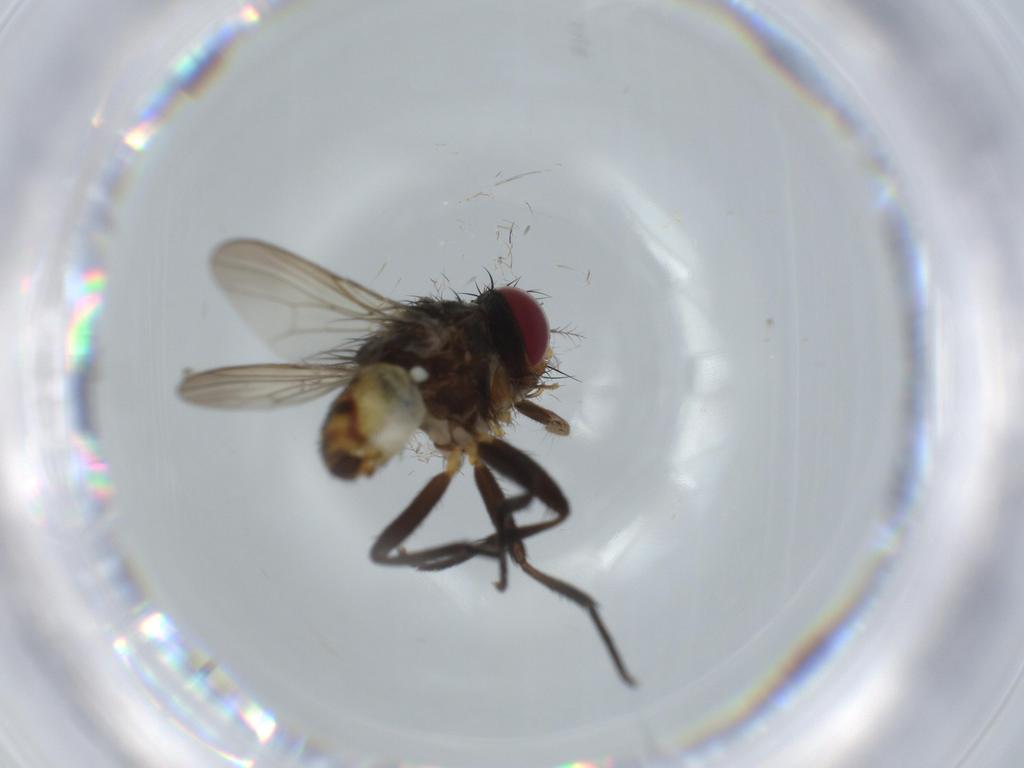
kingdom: Animalia
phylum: Arthropoda
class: Insecta
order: Diptera
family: Anthomyiidae
